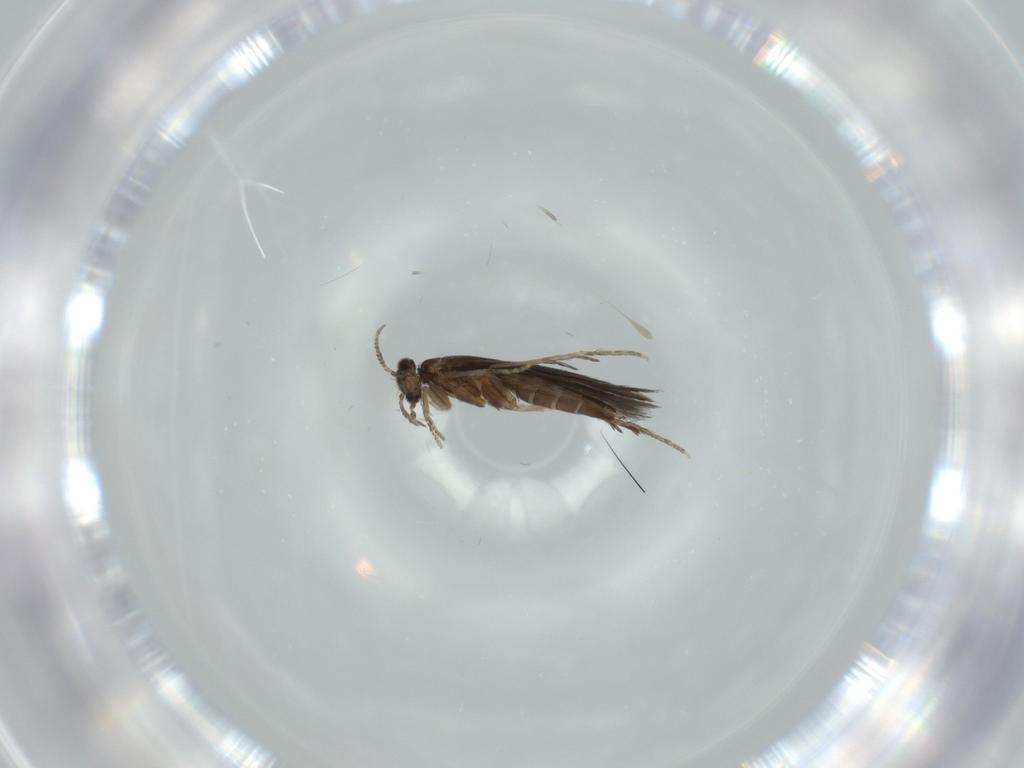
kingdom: Animalia
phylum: Arthropoda
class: Insecta
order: Trichoptera
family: Hydroptilidae
